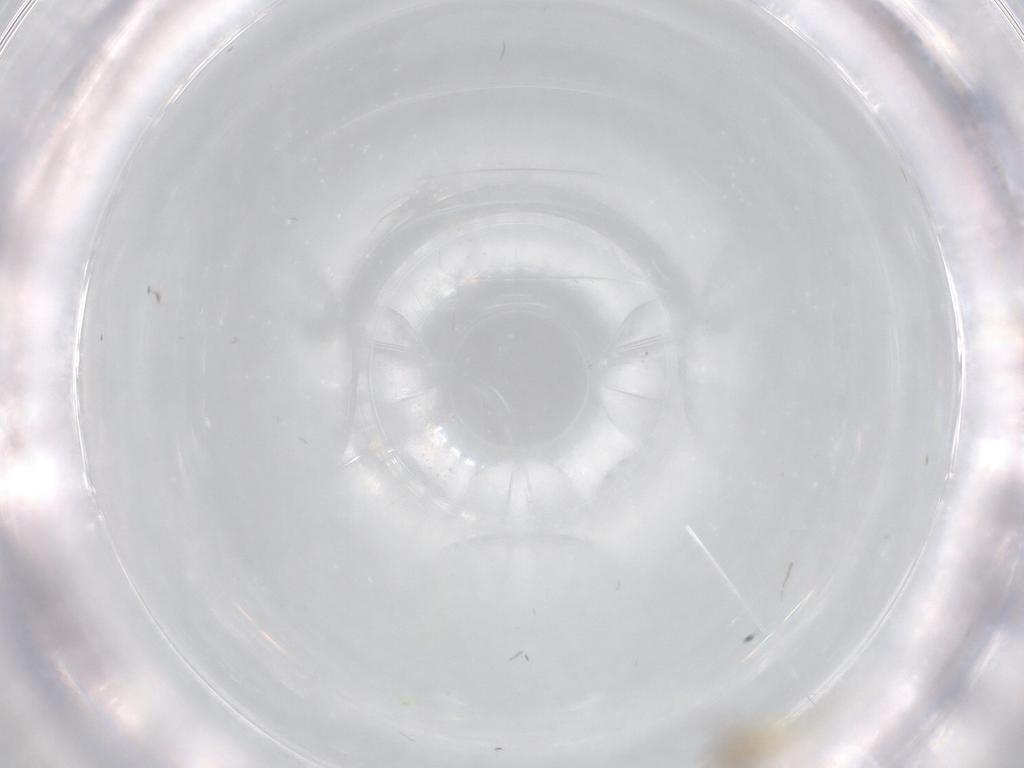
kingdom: Animalia
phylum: Arthropoda
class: Insecta
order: Diptera
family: Cecidomyiidae
